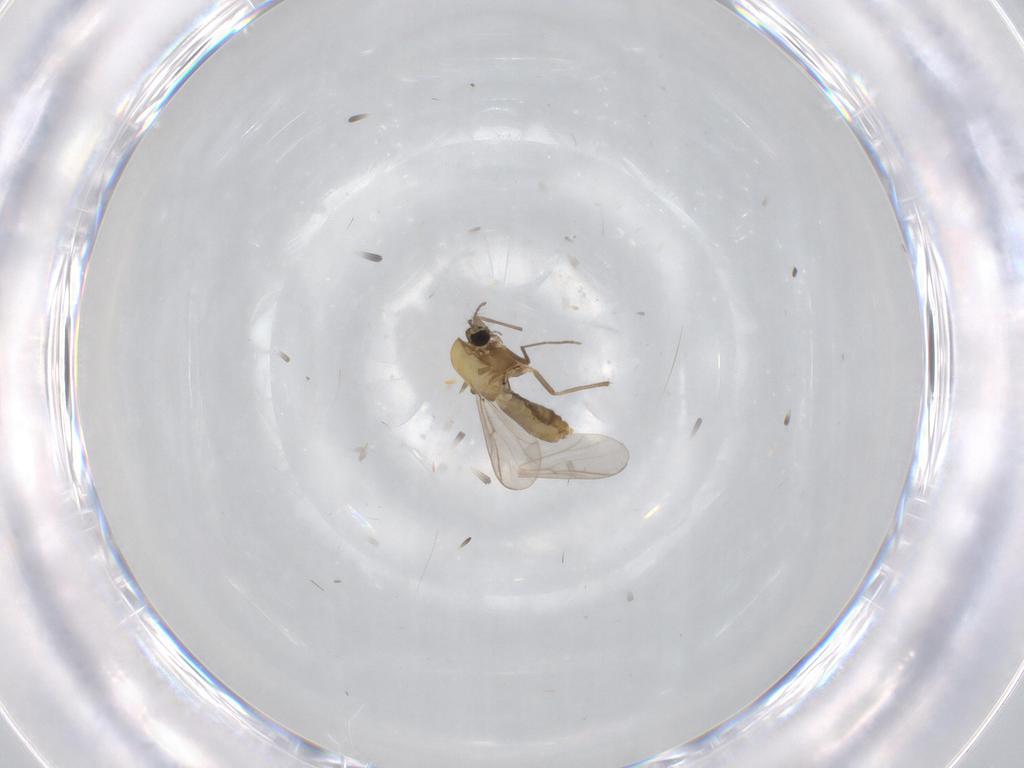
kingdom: Animalia
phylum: Arthropoda
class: Insecta
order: Diptera
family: Chironomidae
